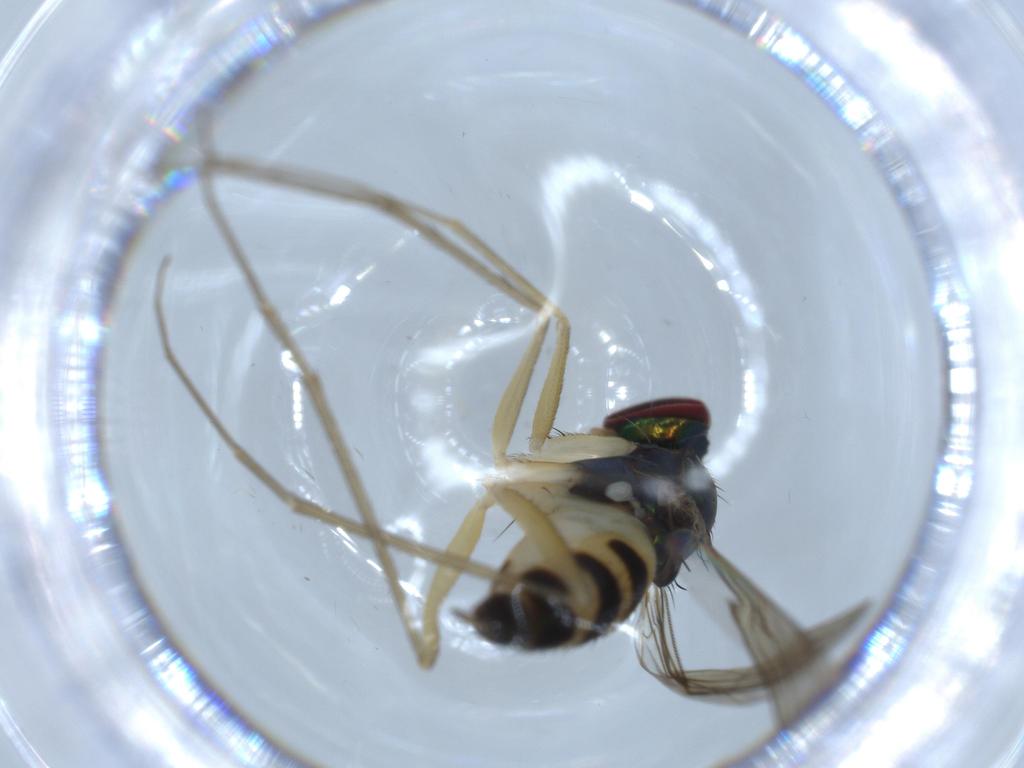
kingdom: Animalia
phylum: Arthropoda
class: Insecta
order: Diptera
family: Dolichopodidae
